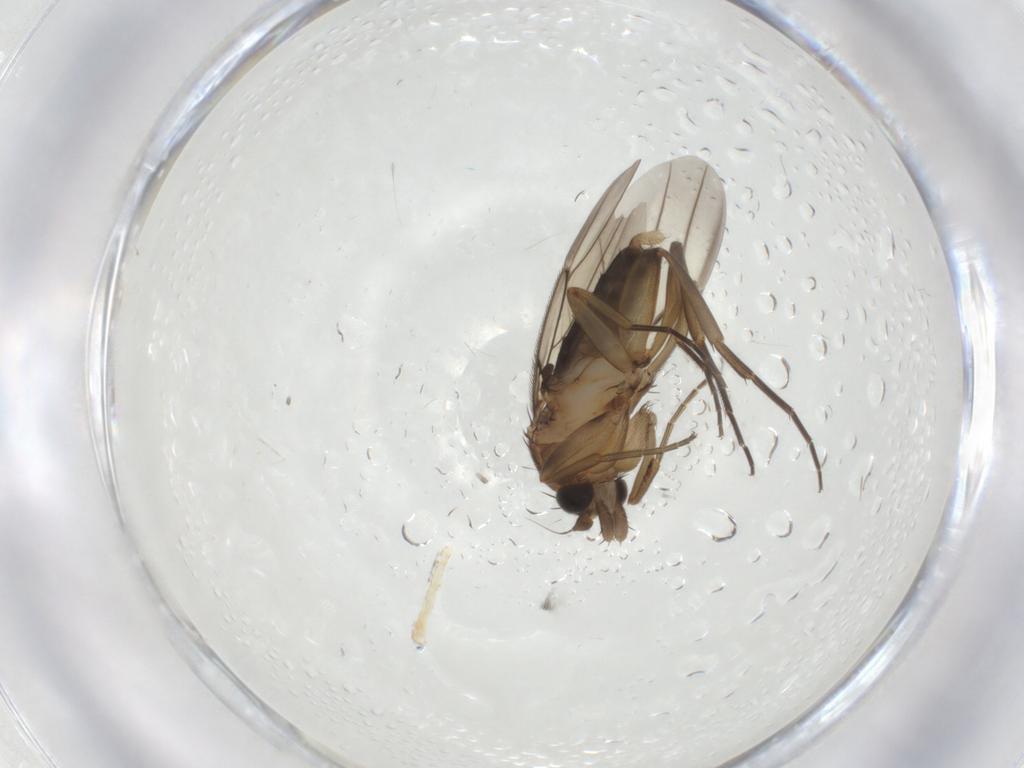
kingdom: Animalia
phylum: Arthropoda
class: Insecta
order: Diptera
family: Phoridae
